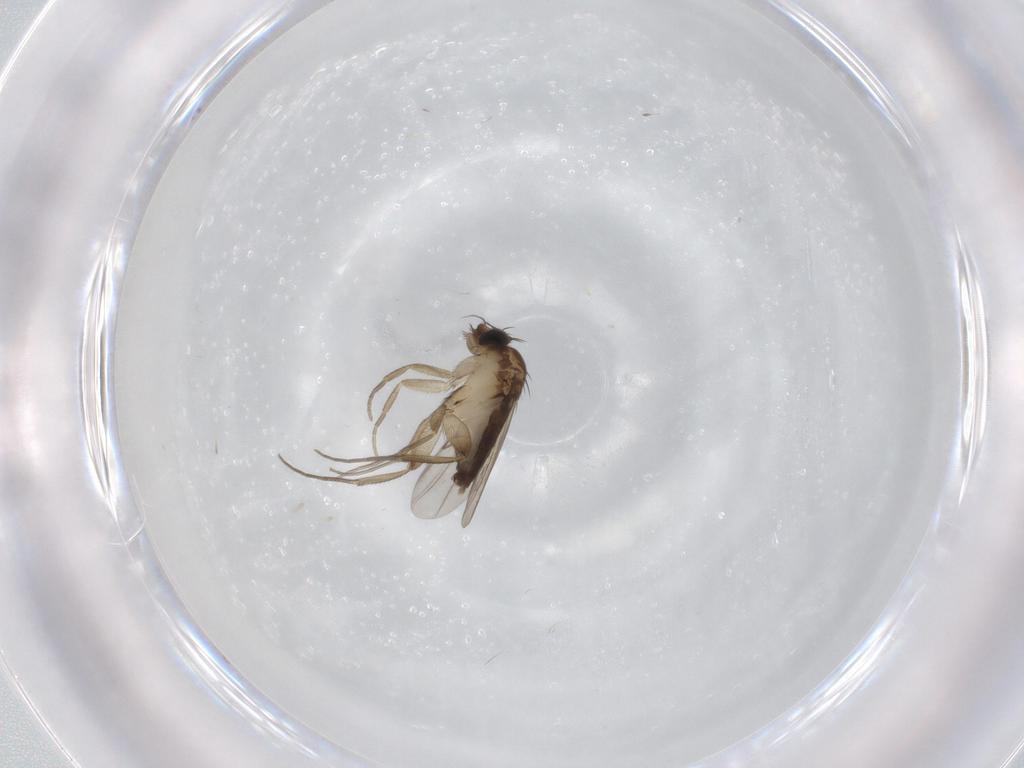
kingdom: Animalia
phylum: Arthropoda
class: Insecta
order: Diptera
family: Phoridae
